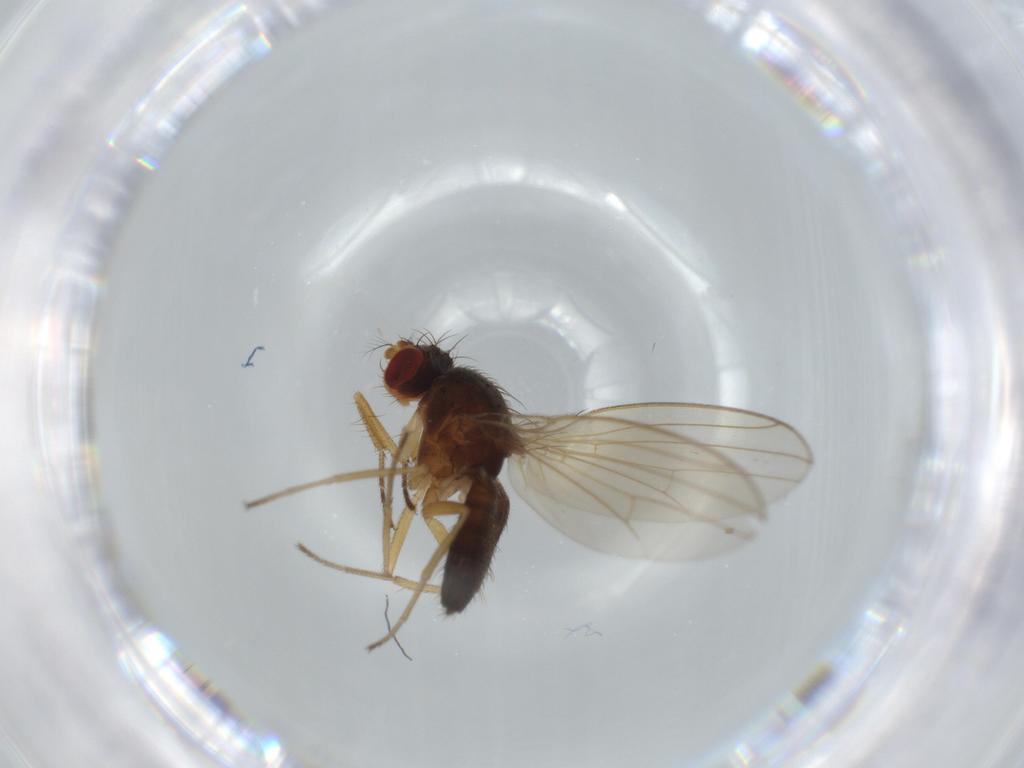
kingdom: Animalia
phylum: Arthropoda
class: Insecta
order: Diptera
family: Drosophilidae
